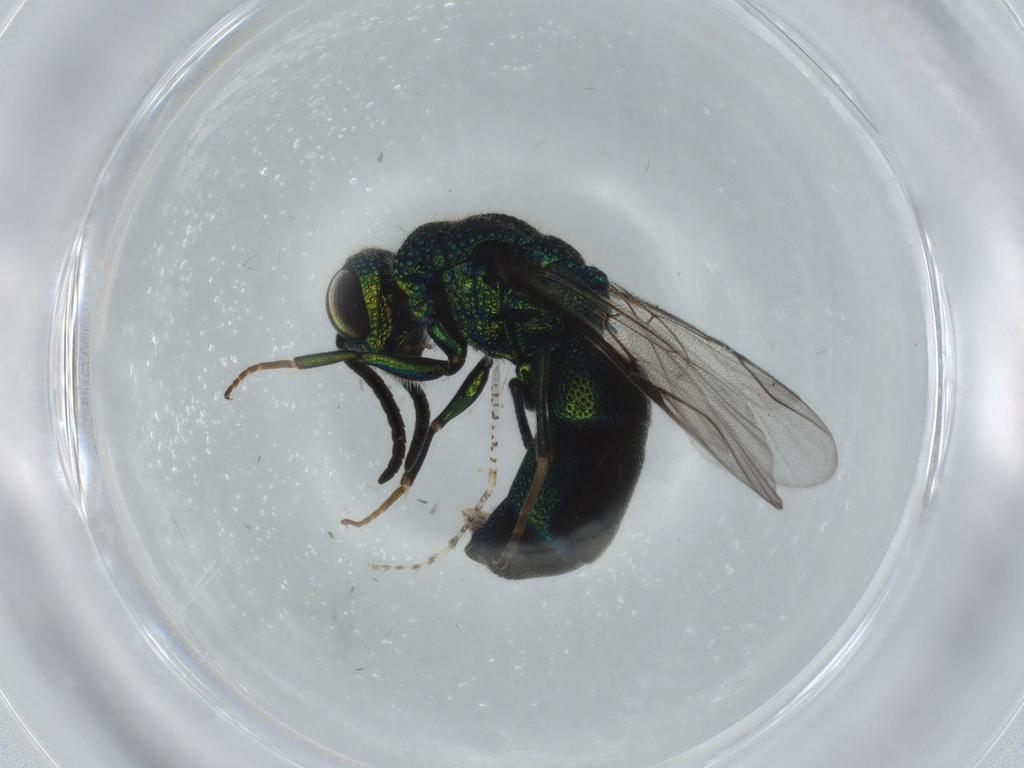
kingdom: Animalia
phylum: Arthropoda
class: Insecta
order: Hymenoptera
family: Chrysididae
